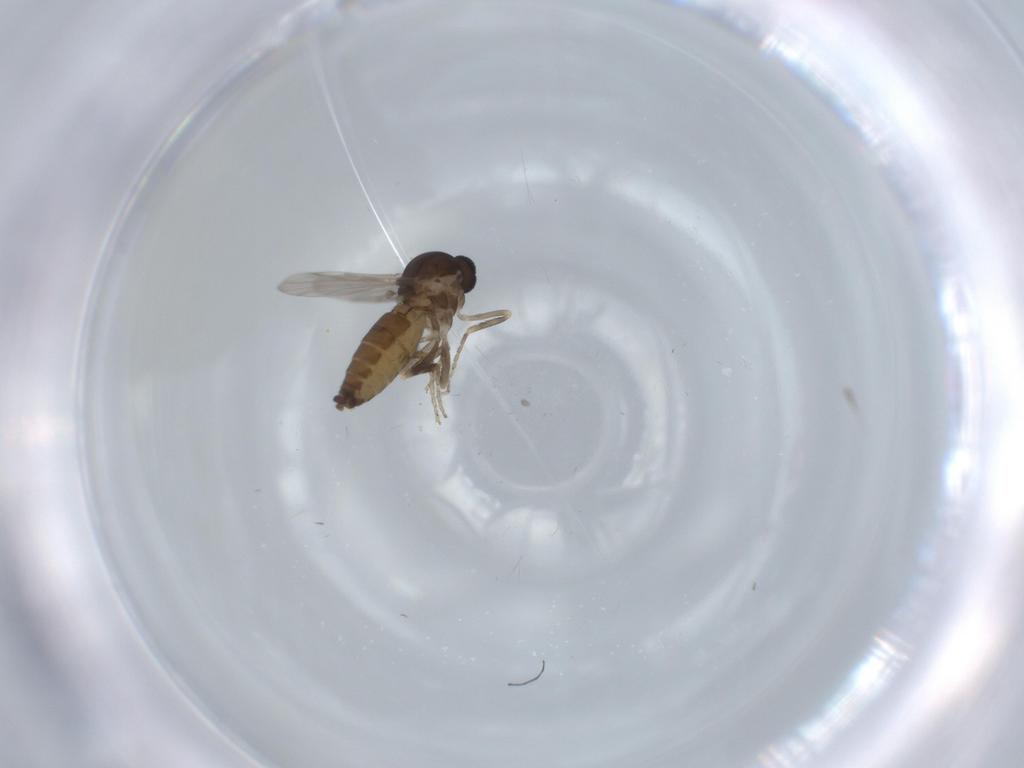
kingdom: Animalia
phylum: Arthropoda
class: Insecta
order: Diptera
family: Ceratopogonidae
